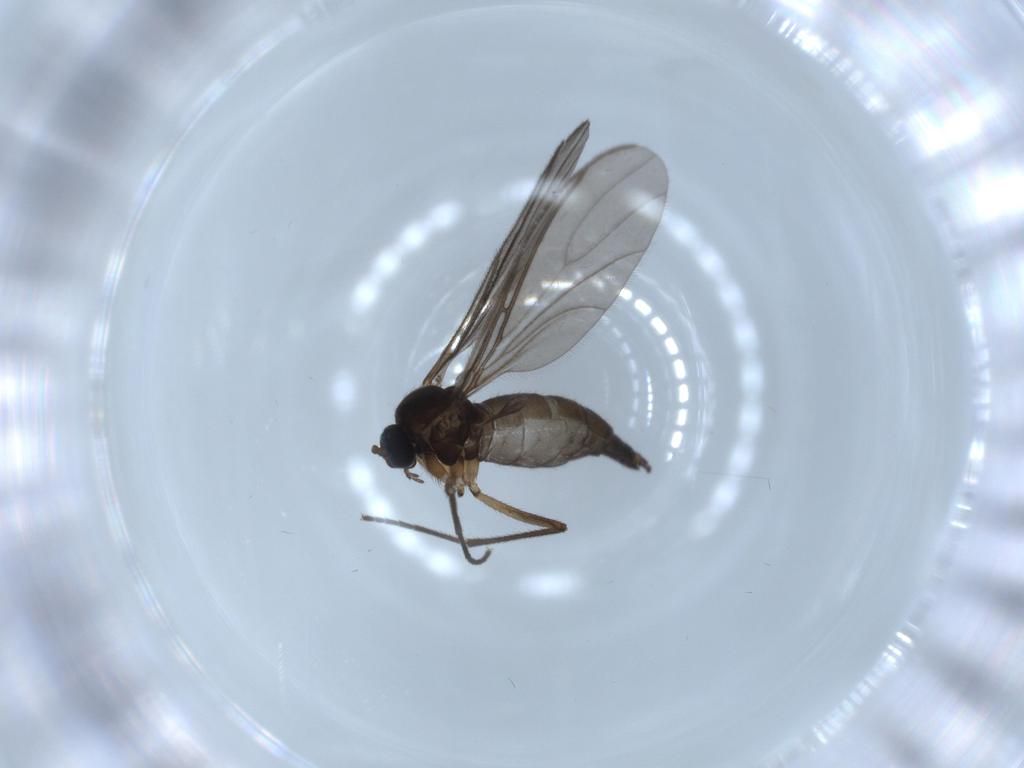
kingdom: Animalia
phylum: Arthropoda
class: Insecta
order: Diptera
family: Sciaridae
